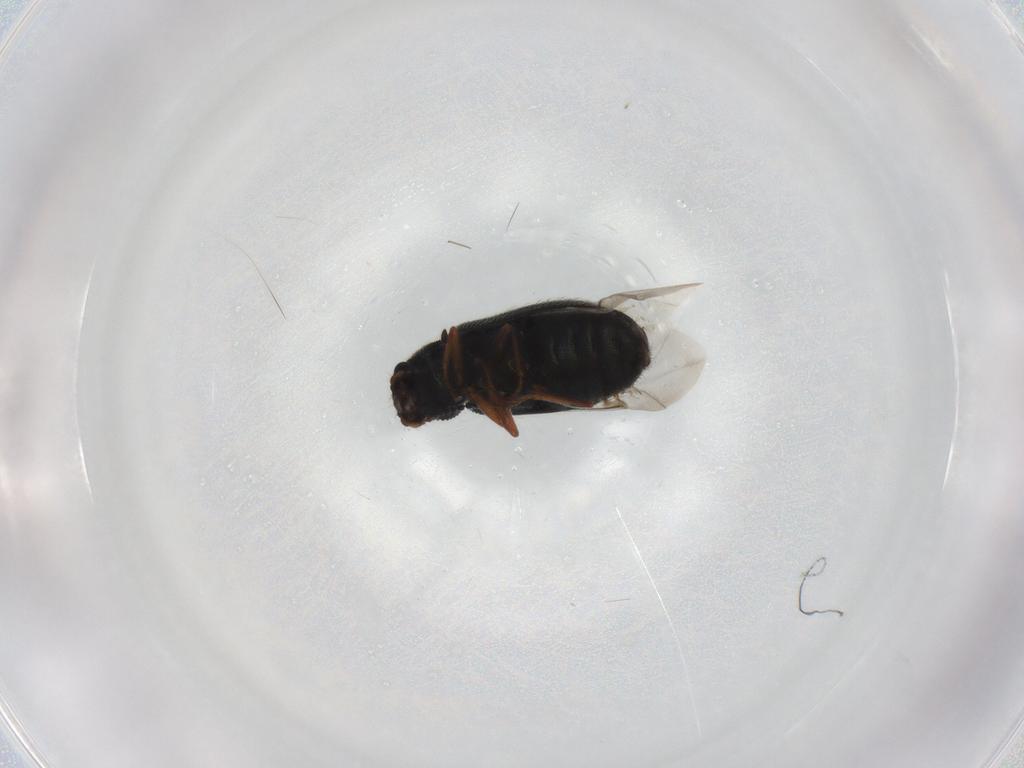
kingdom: Animalia
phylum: Arthropoda
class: Insecta
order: Coleoptera
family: Melyridae
